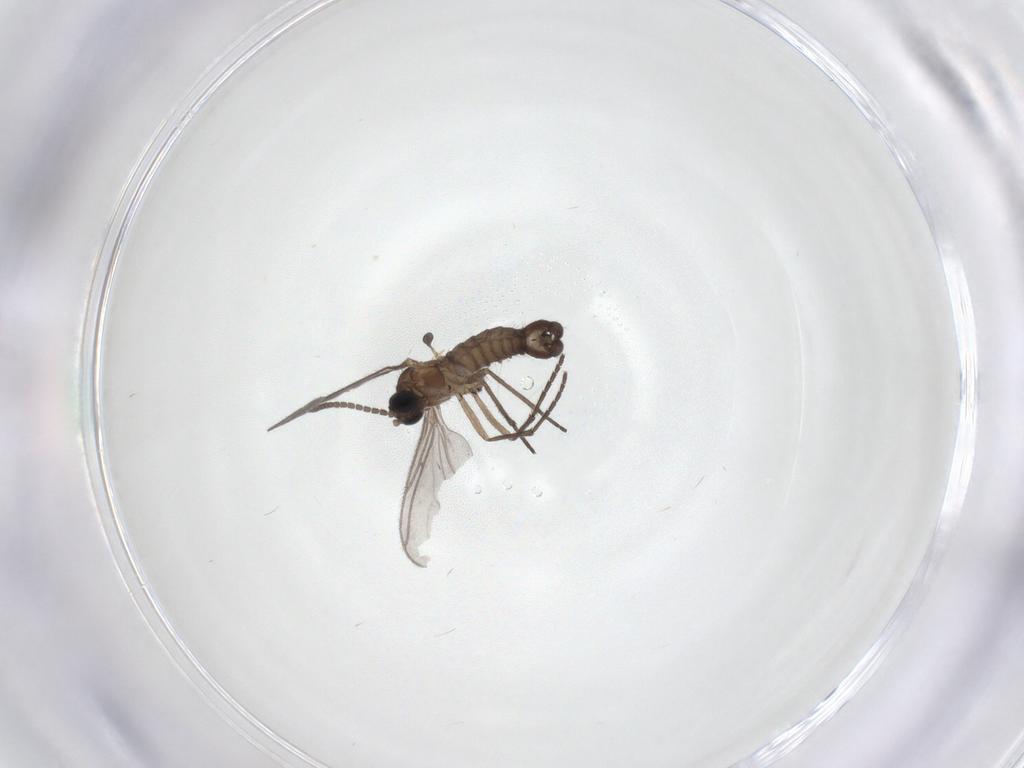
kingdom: Animalia
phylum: Arthropoda
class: Insecta
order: Diptera
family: Sciaridae
